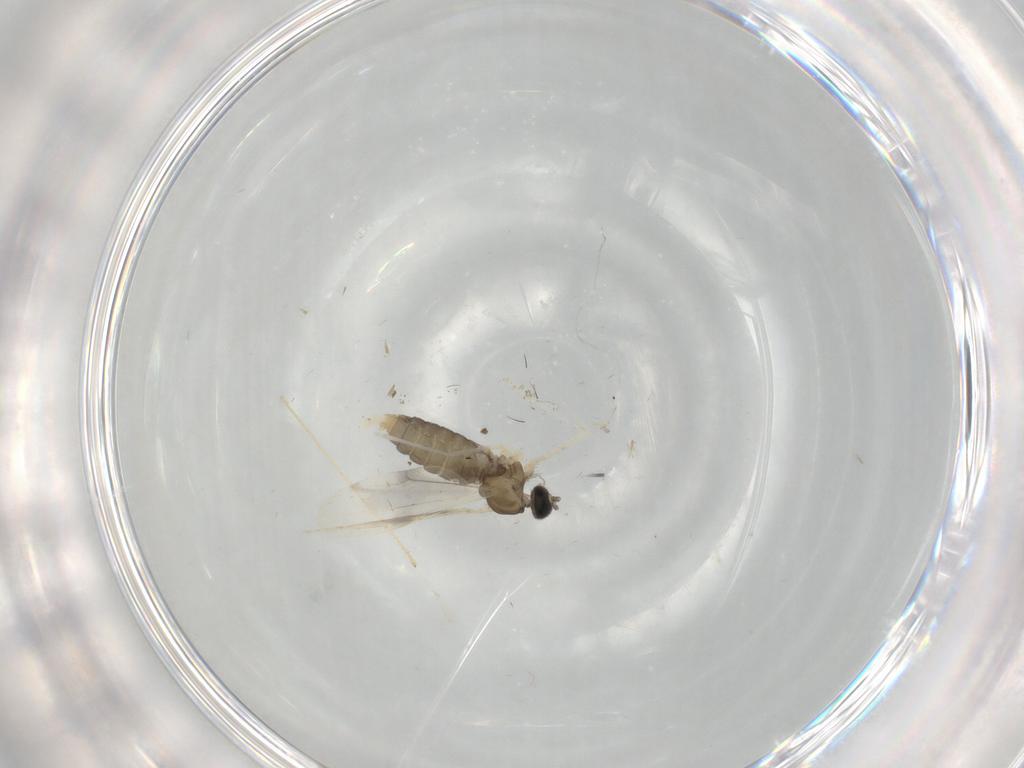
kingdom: Animalia
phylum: Arthropoda
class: Insecta
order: Diptera
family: Cecidomyiidae
